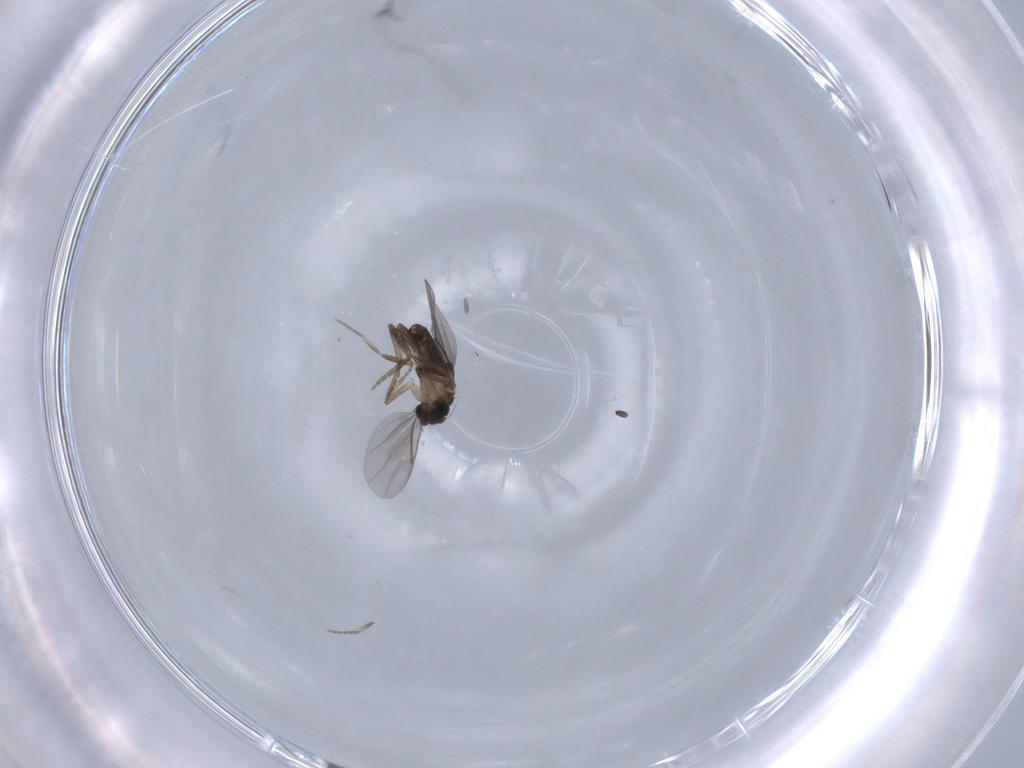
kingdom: Animalia
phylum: Arthropoda
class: Insecta
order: Diptera
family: Sciaridae
